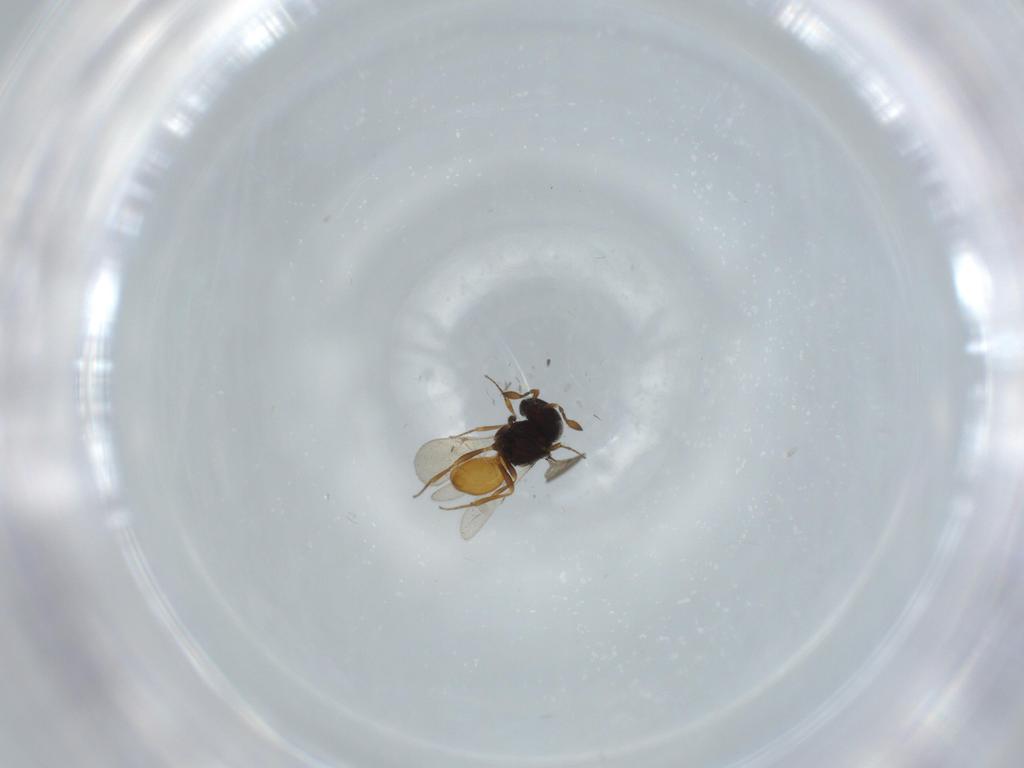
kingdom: Animalia
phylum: Arthropoda
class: Insecta
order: Hymenoptera
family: Scelionidae
